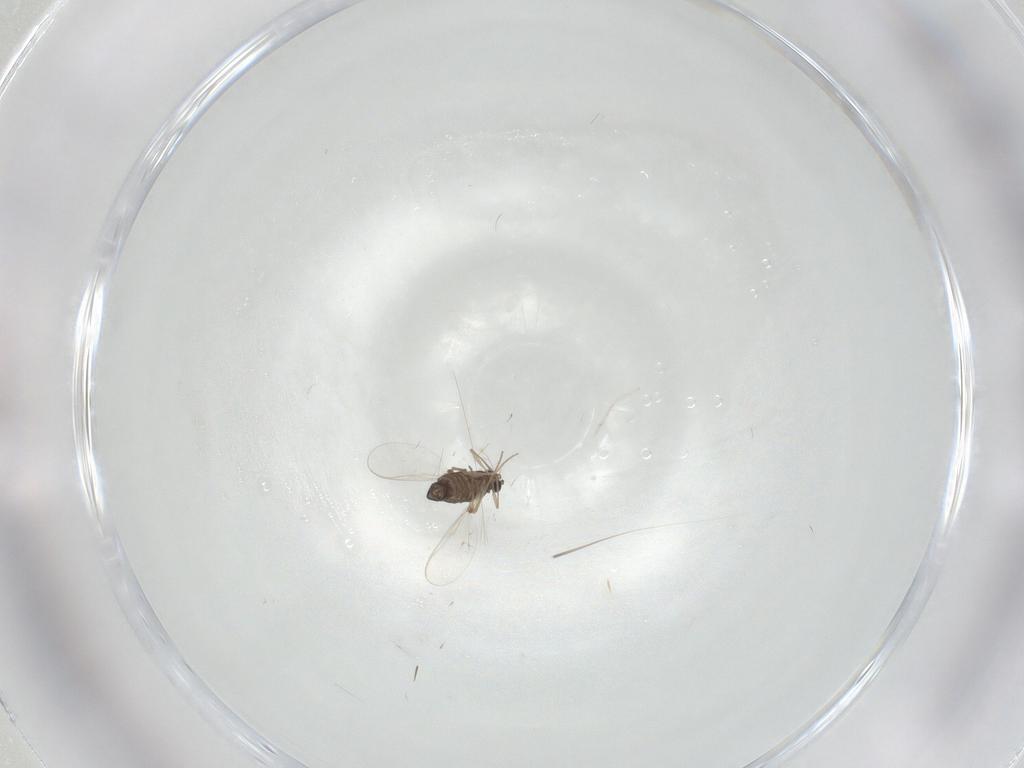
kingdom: Animalia
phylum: Arthropoda
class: Insecta
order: Diptera
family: Chironomidae
